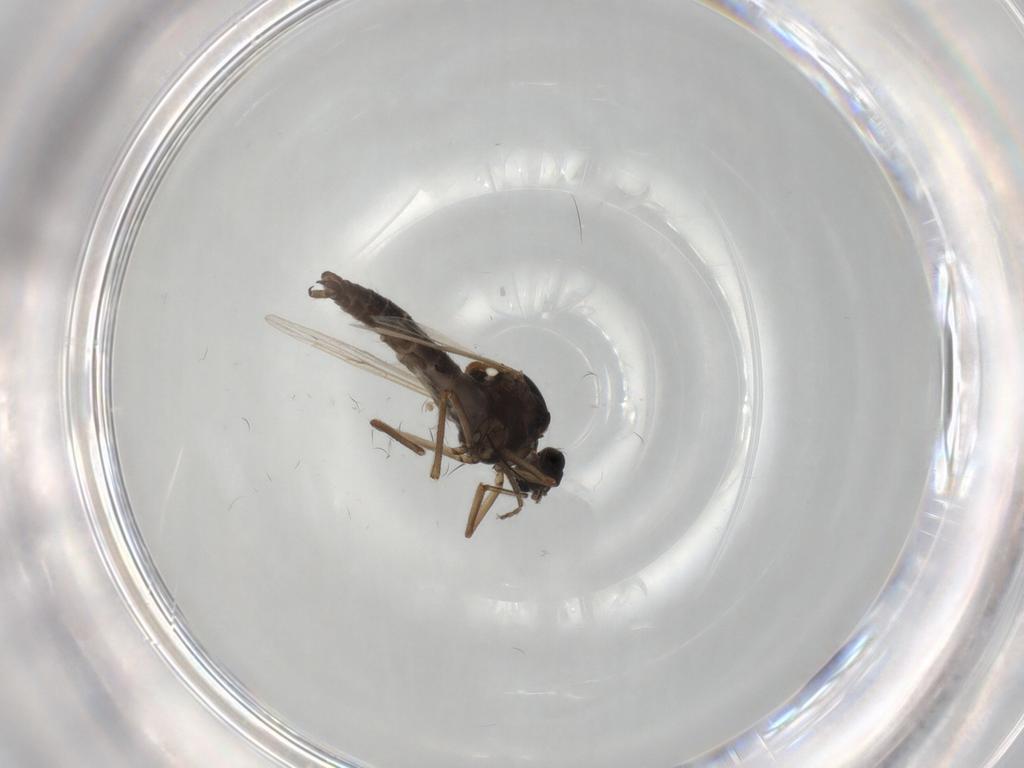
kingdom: Animalia
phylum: Arthropoda
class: Insecta
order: Diptera
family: Ceratopogonidae
